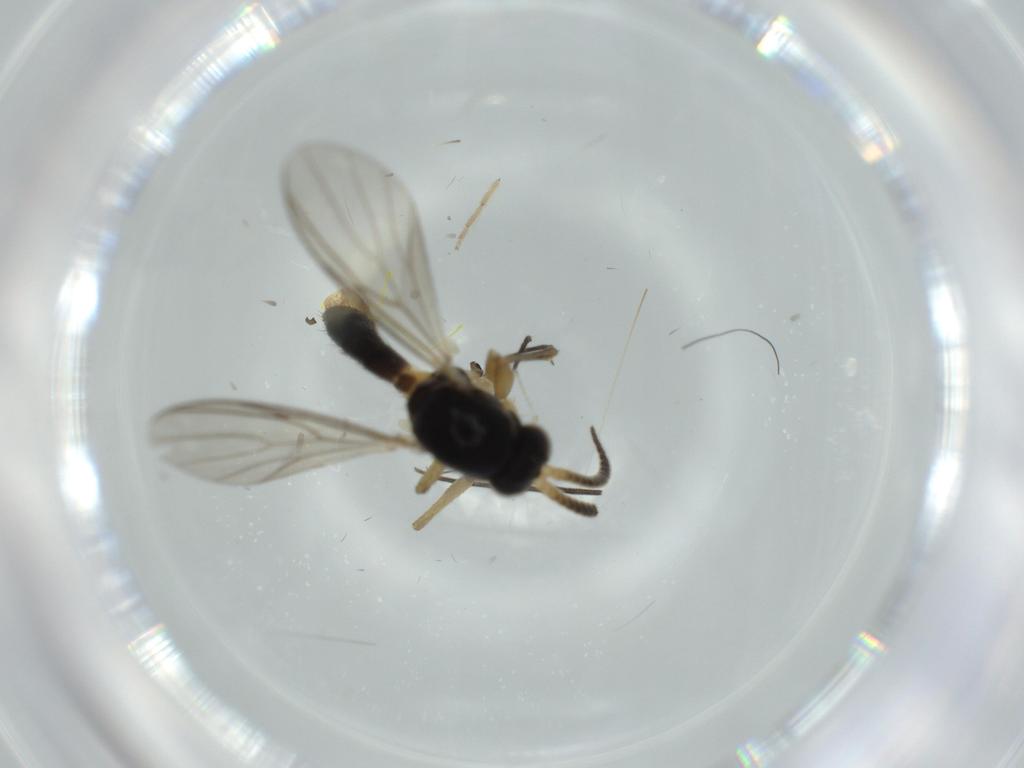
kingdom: Animalia
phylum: Arthropoda
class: Insecta
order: Diptera
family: Psychodidae
